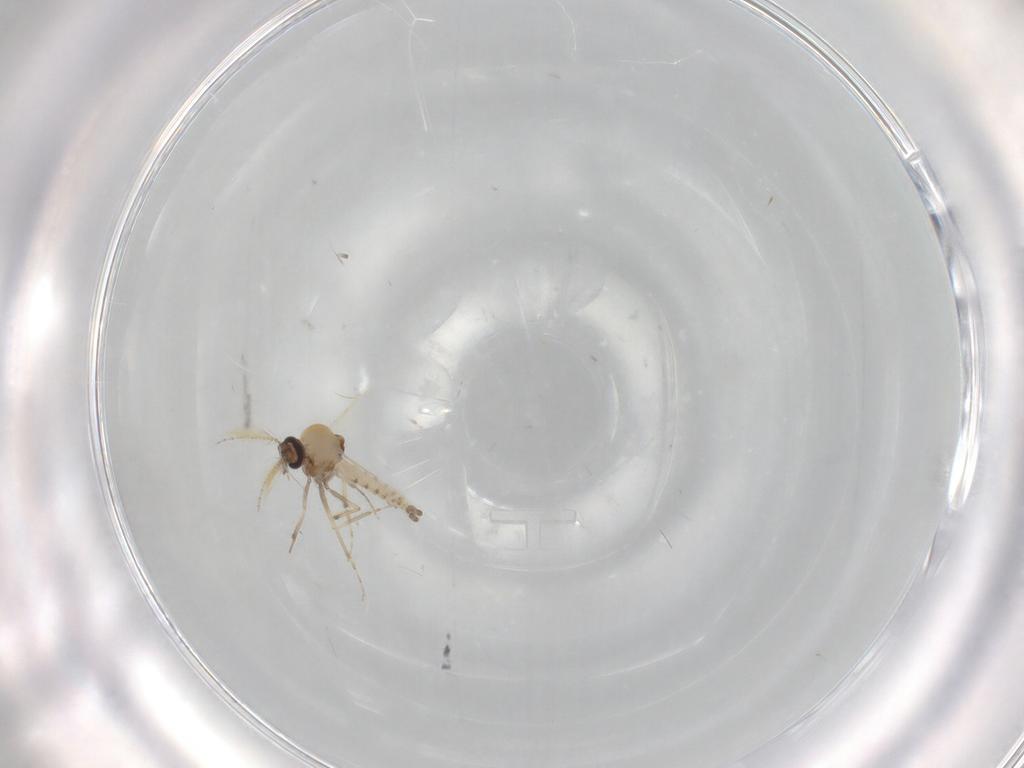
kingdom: Animalia
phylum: Arthropoda
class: Insecta
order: Diptera
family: Ceratopogonidae
